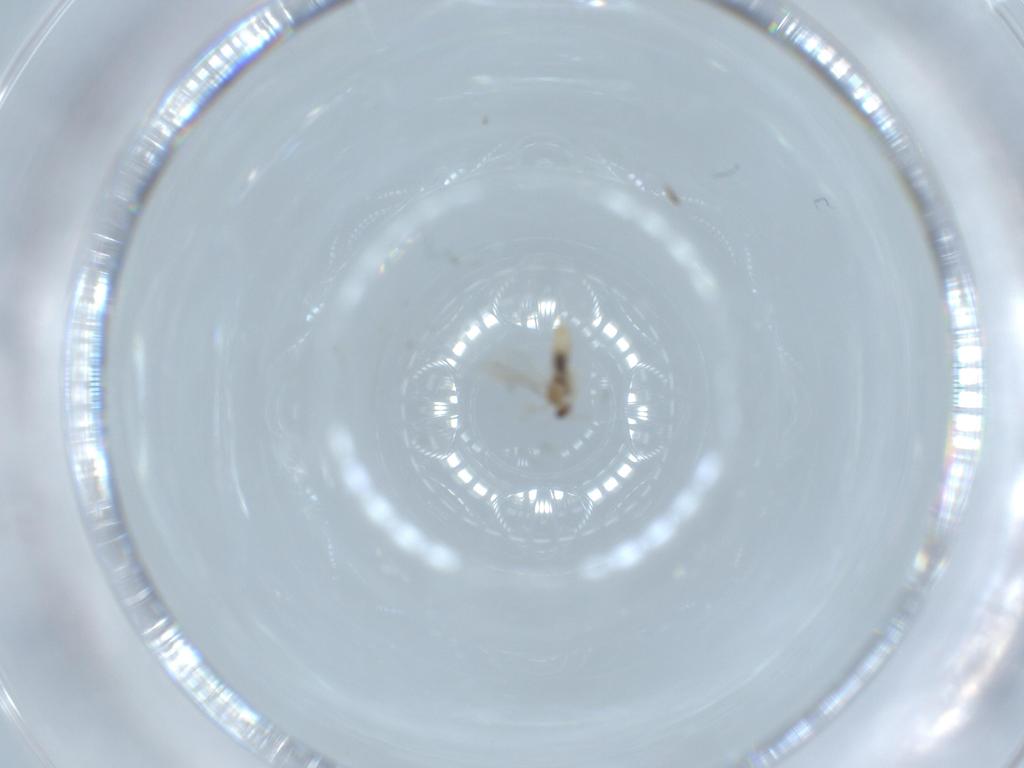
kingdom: Animalia
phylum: Arthropoda
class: Insecta
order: Diptera
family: Cecidomyiidae
